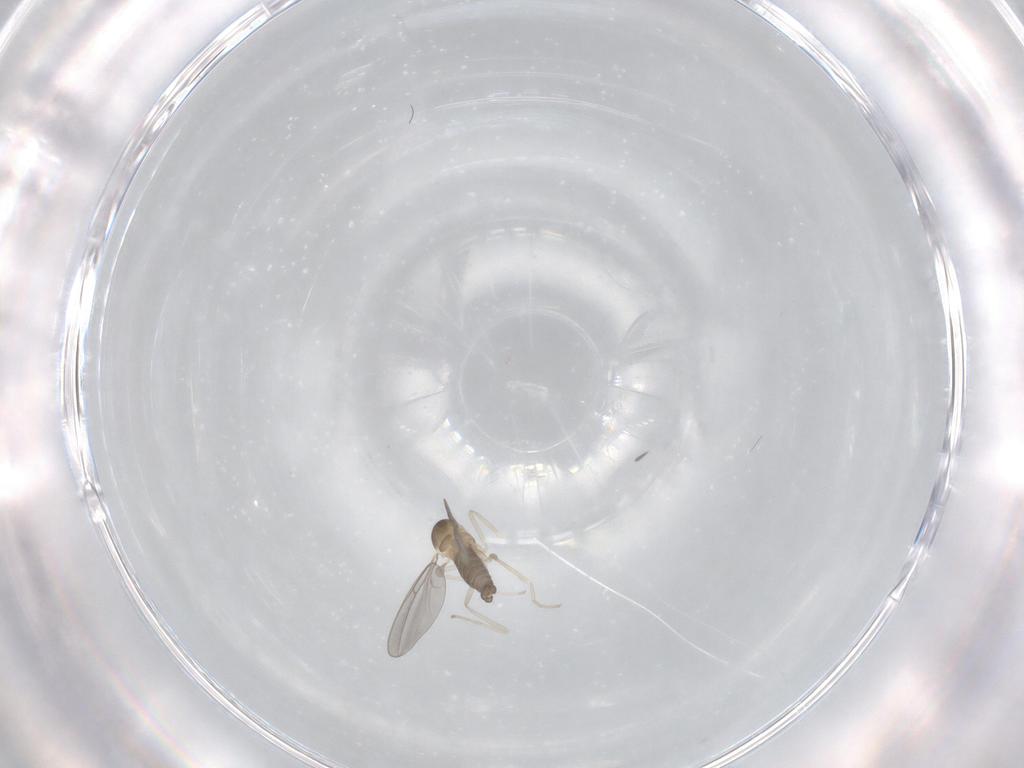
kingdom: Animalia
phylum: Arthropoda
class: Insecta
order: Diptera
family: Cecidomyiidae
